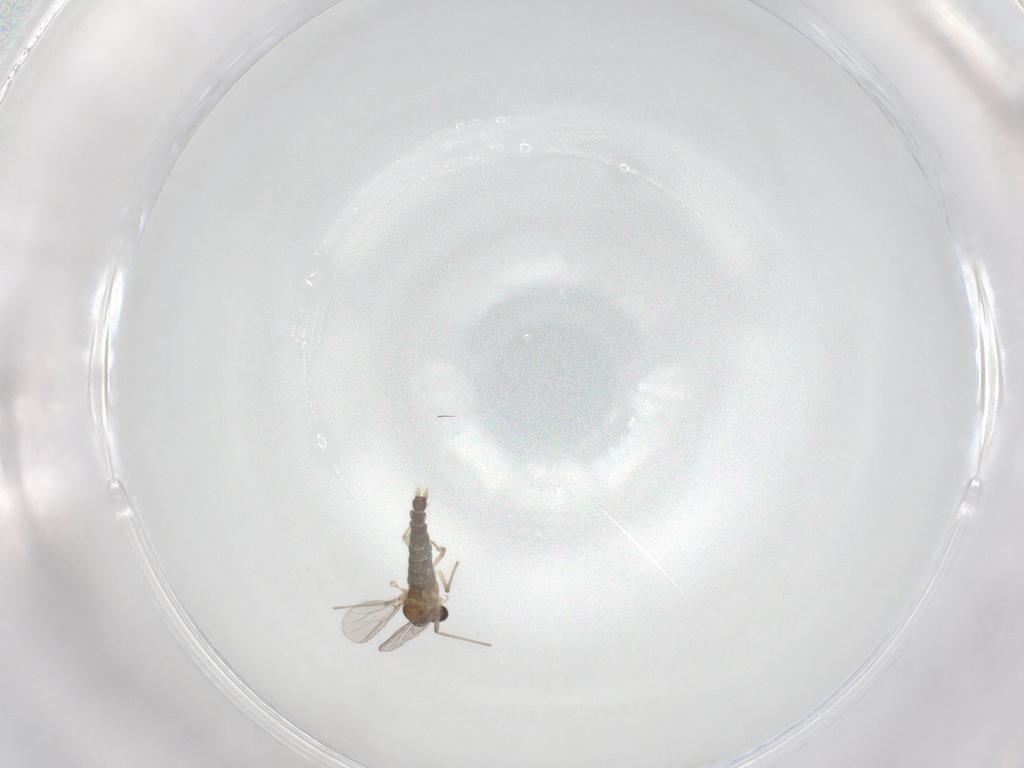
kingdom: Animalia
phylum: Arthropoda
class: Insecta
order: Diptera
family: Chironomidae
